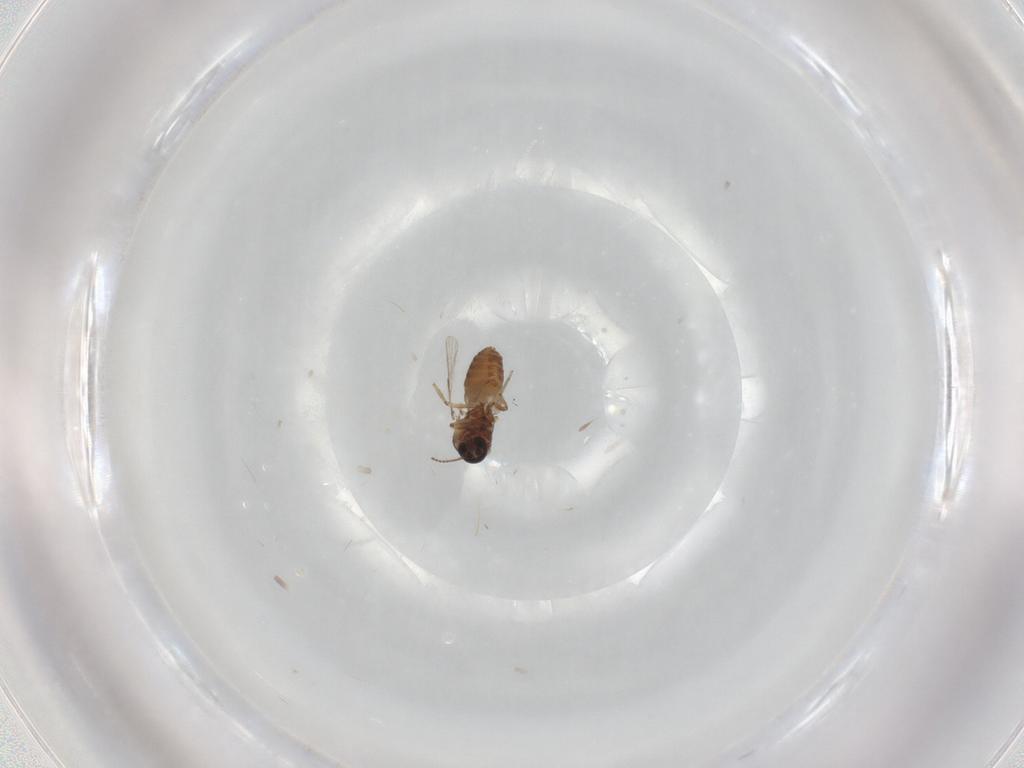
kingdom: Animalia
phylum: Arthropoda
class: Insecta
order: Diptera
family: Ceratopogonidae
